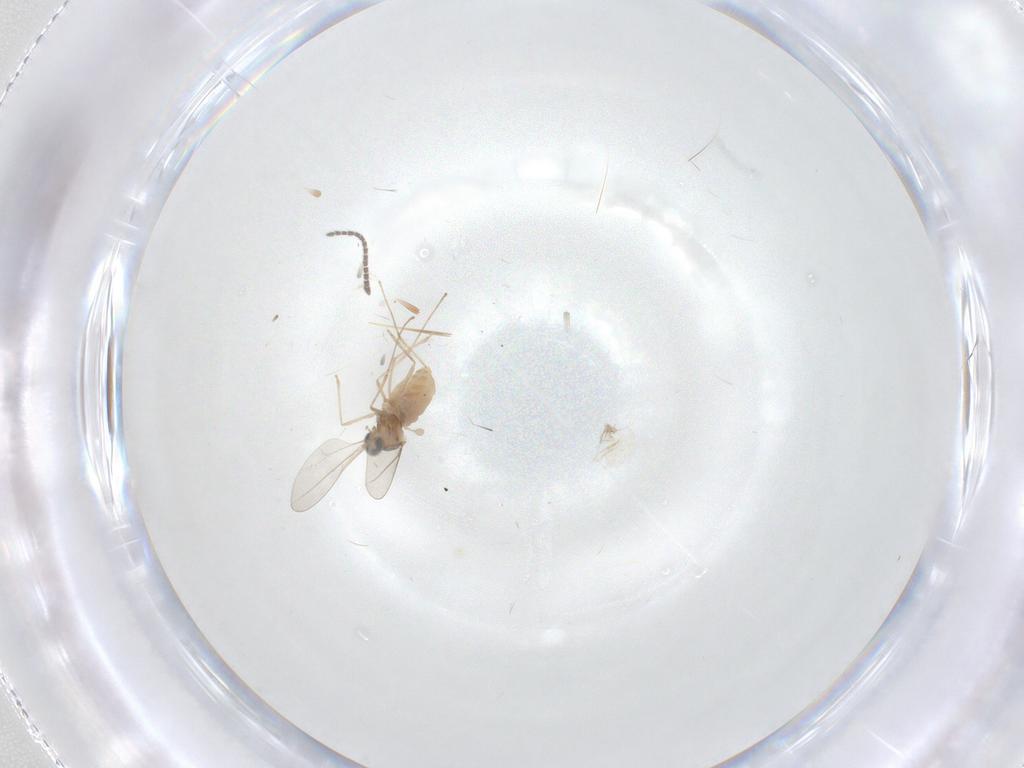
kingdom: Animalia
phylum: Arthropoda
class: Insecta
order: Diptera
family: Sciaridae
